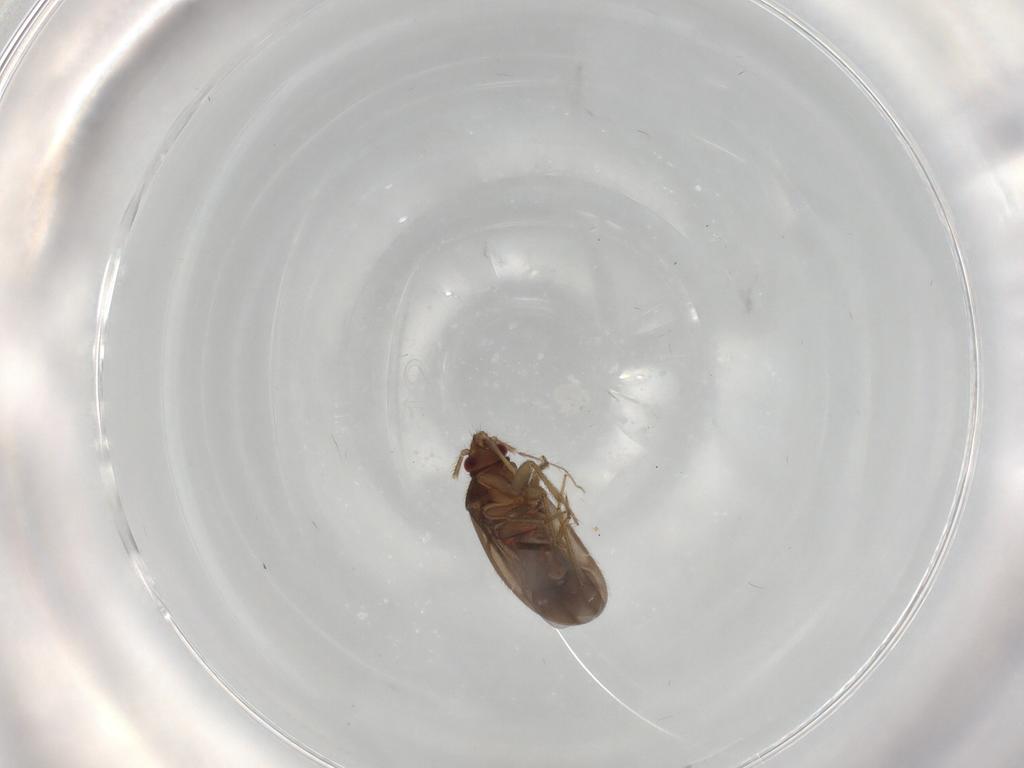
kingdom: Animalia
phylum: Arthropoda
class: Insecta
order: Hemiptera
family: Ceratocombidae
